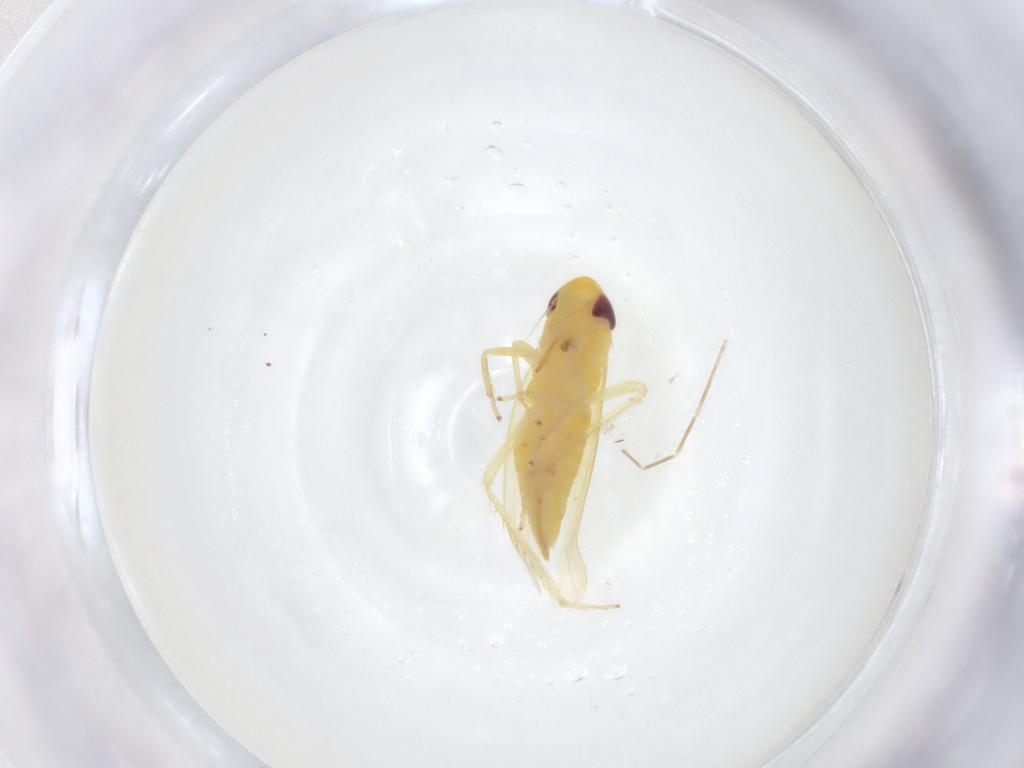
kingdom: Animalia
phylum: Arthropoda
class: Insecta
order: Hemiptera
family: Cicadellidae
